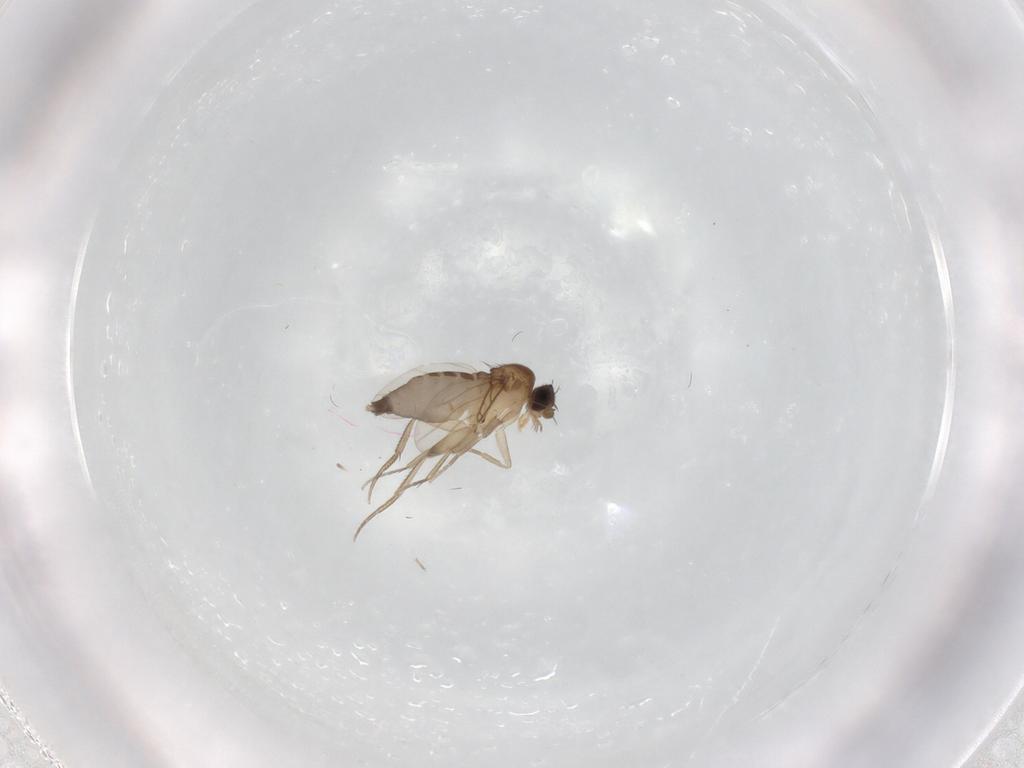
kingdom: Animalia
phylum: Arthropoda
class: Insecta
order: Diptera
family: Phoridae
